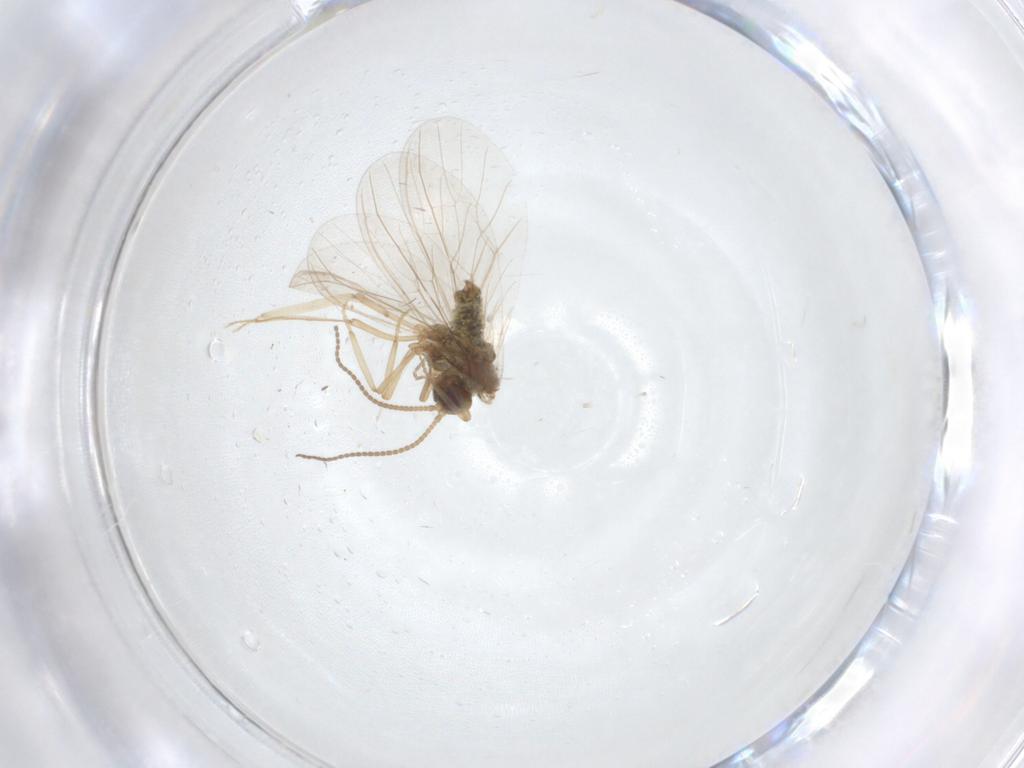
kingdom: Animalia
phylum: Arthropoda
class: Insecta
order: Neuroptera
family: Coniopterygidae
